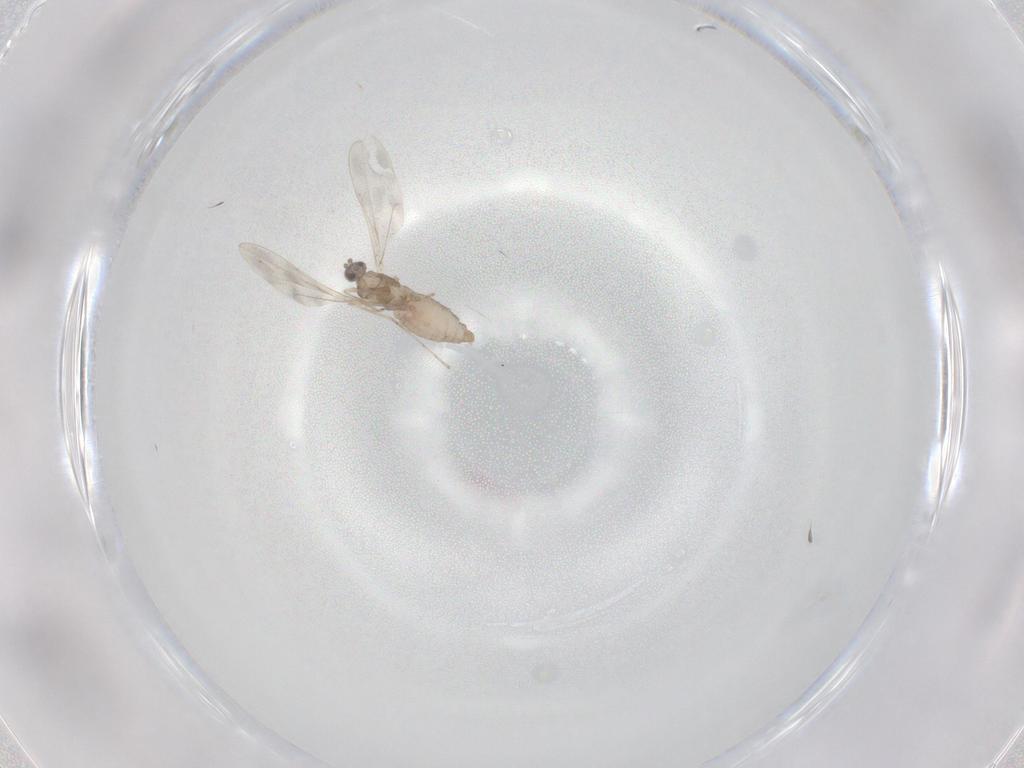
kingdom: Animalia
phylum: Arthropoda
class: Insecta
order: Diptera
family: Cecidomyiidae
